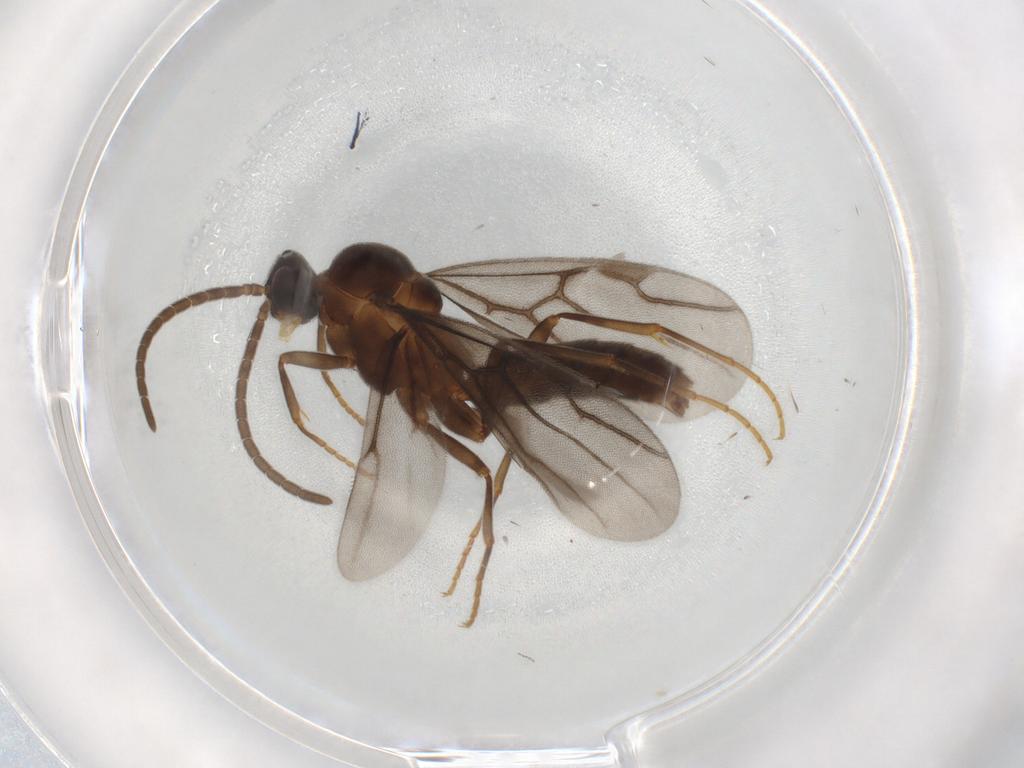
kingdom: Animalia
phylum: Arthropoda
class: Insecta
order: Hymenoptera
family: Formicidae
